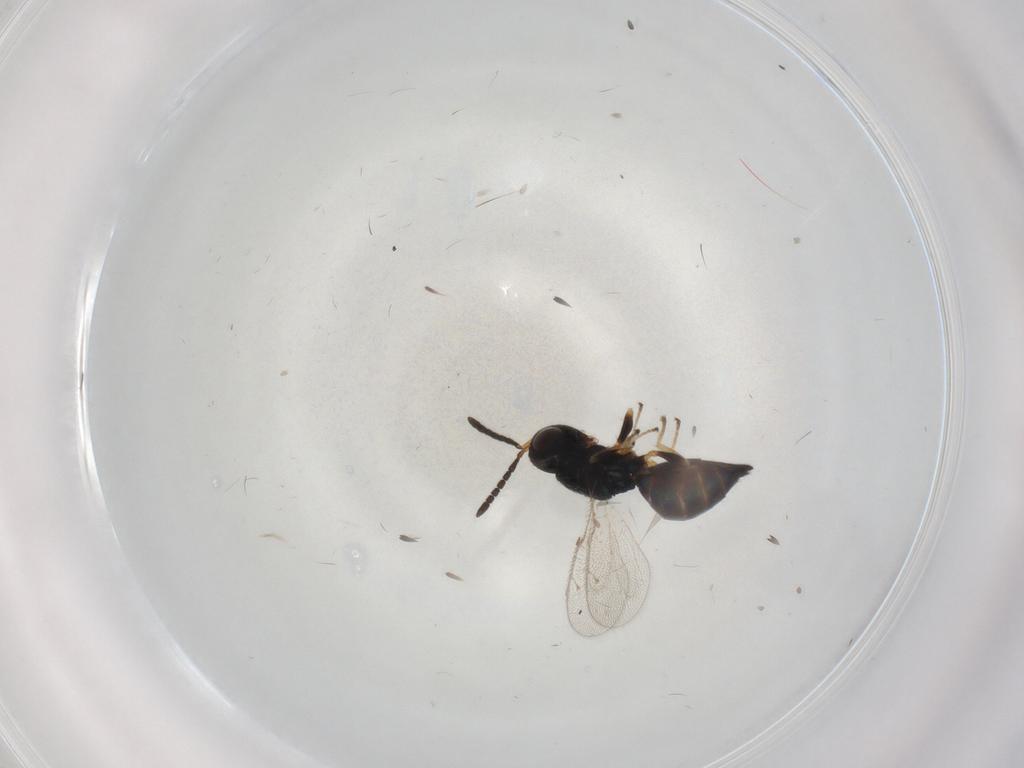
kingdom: Animalia
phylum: Arthropoda
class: Insecta
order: Hymenoptera
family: Pteromalidae
